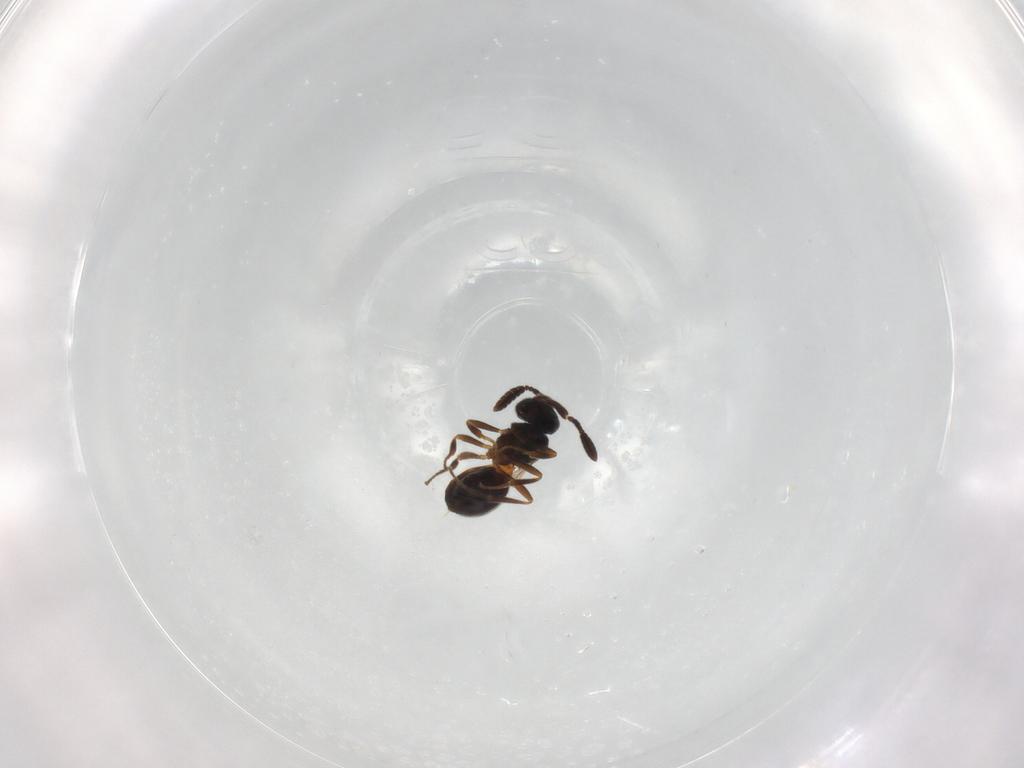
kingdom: Animalia
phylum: Arthropoda
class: Insecta
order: Hymenoptera
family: Scelionidae
